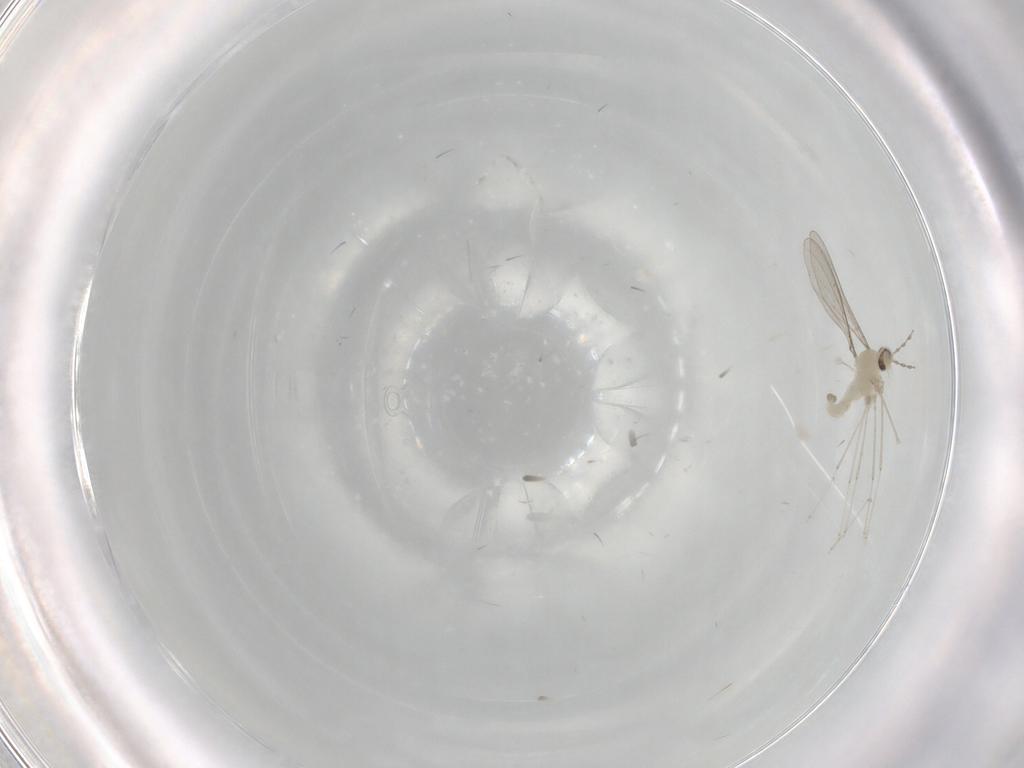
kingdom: Animalia
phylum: Arthropoda
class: Insecta
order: Diptera
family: Cecidomyiidae
